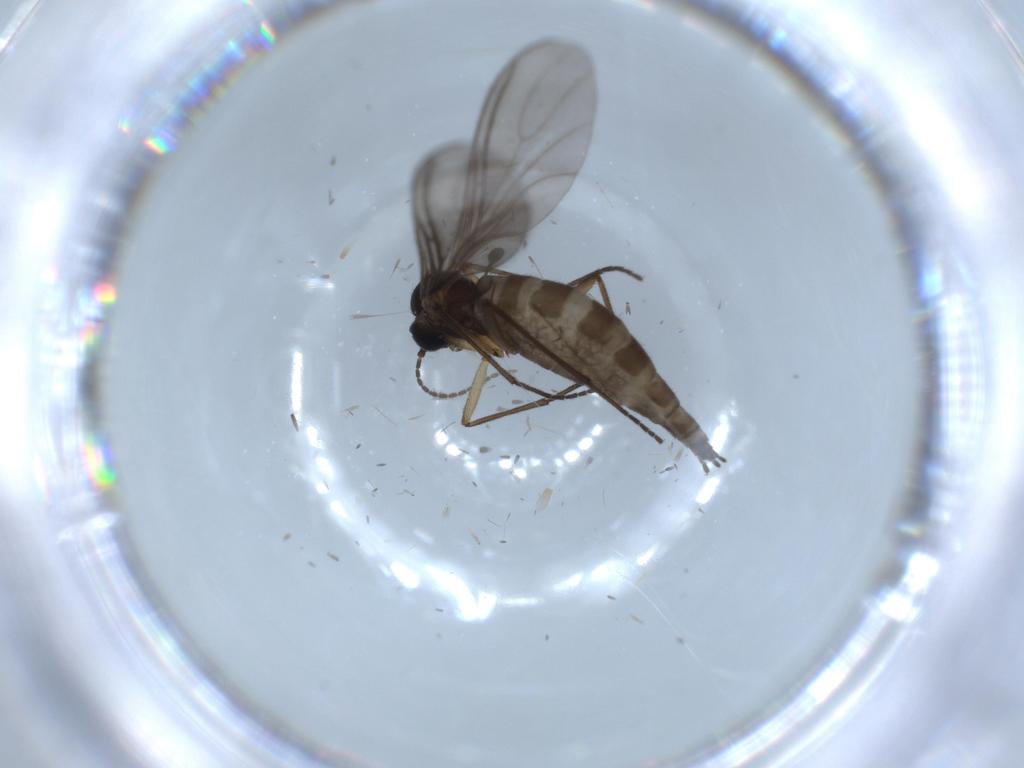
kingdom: Animalia
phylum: Arthropoda
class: Insecta
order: Diptera
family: Sciaridae
